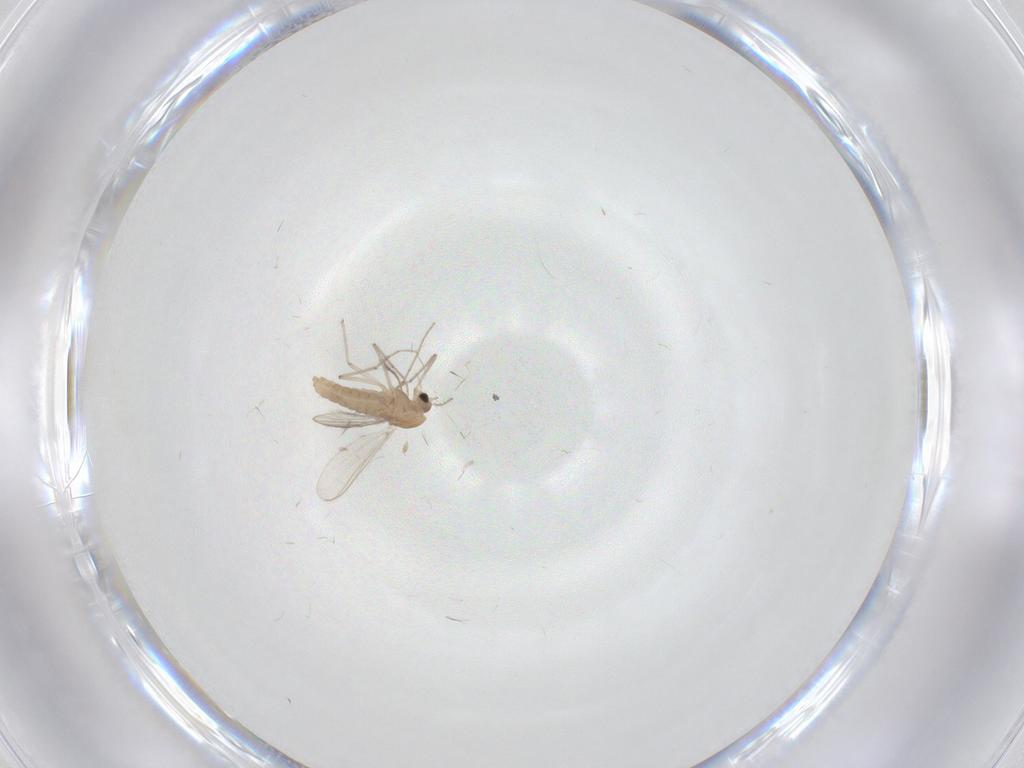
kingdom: Animalia
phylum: Arthropoda
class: Insecta
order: Diptera
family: Chironomidae
